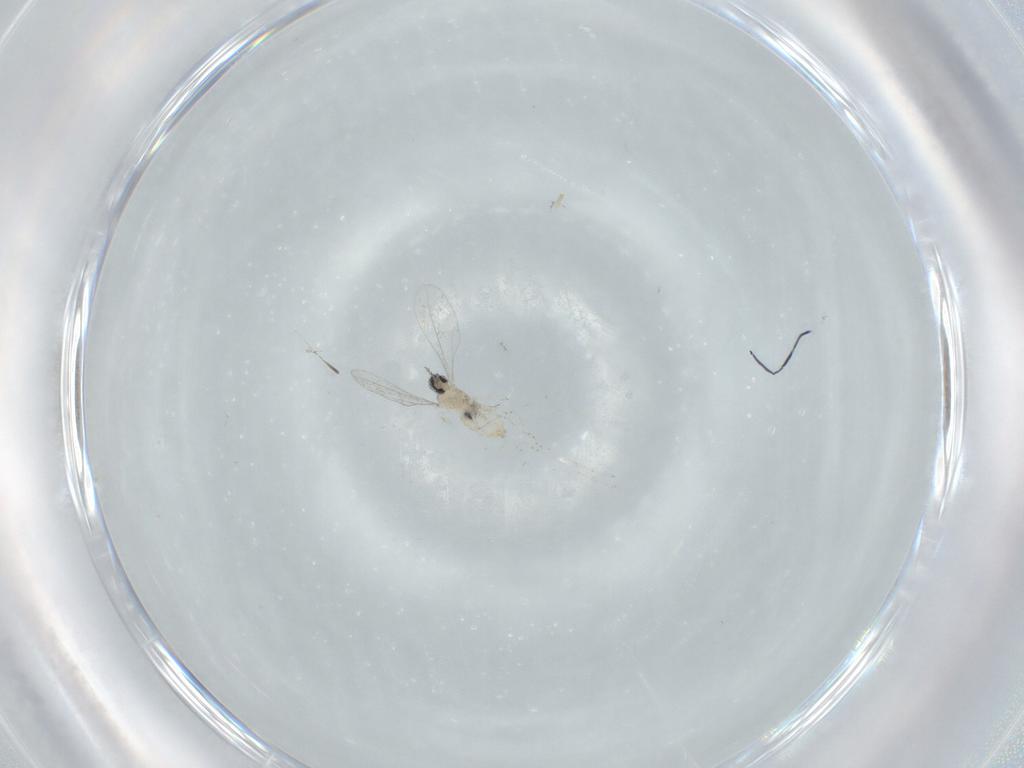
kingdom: Animalia
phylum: Arthropoda
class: Insecta
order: Diptera
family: Cecidomyiidae
